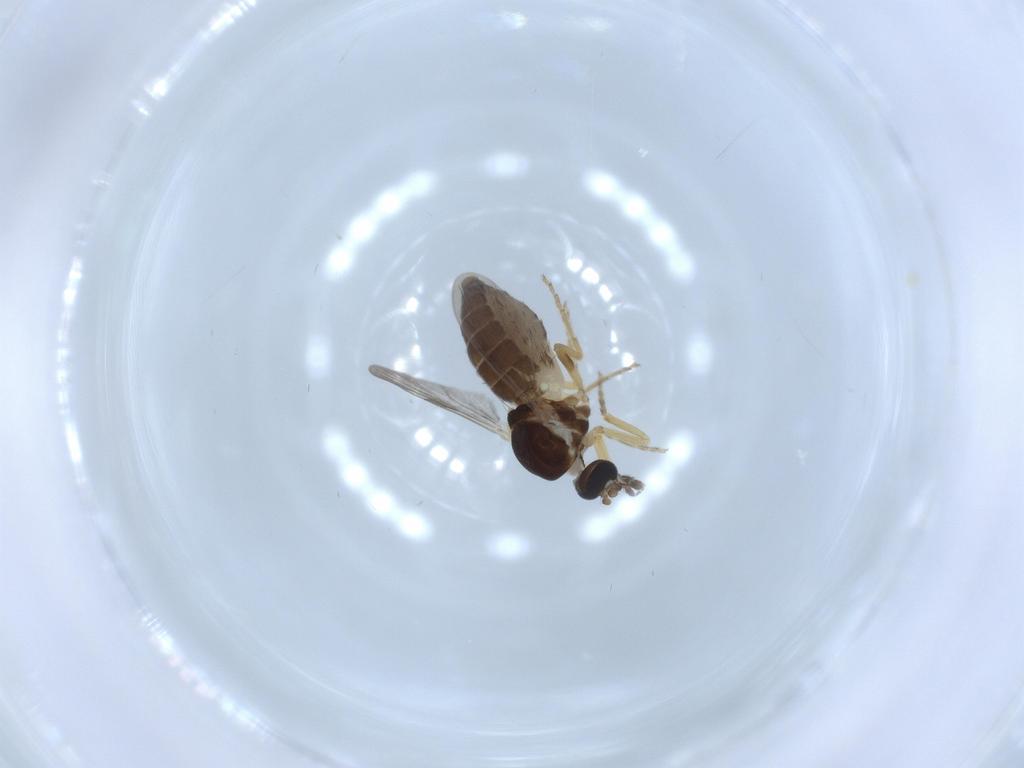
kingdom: Animalia
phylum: Arthropoda
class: Insecta
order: Diptera
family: Ceratopogonidae
